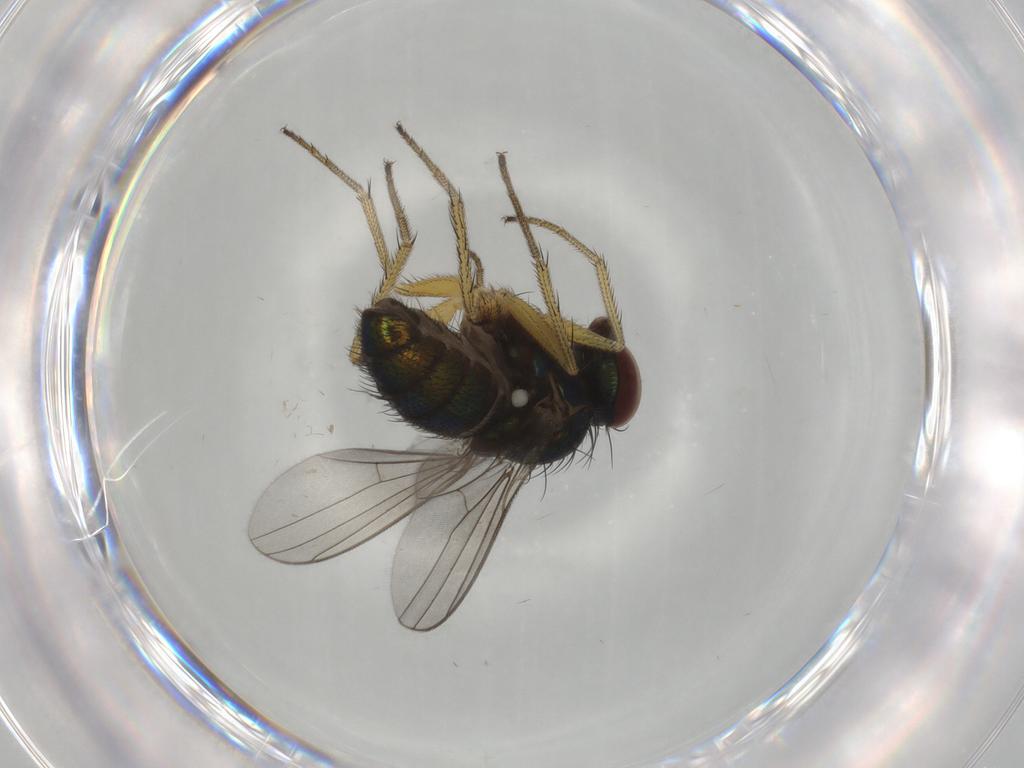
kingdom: Animalia
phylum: Arthropoda
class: Insecta
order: Diptera
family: Dolichopodidae
